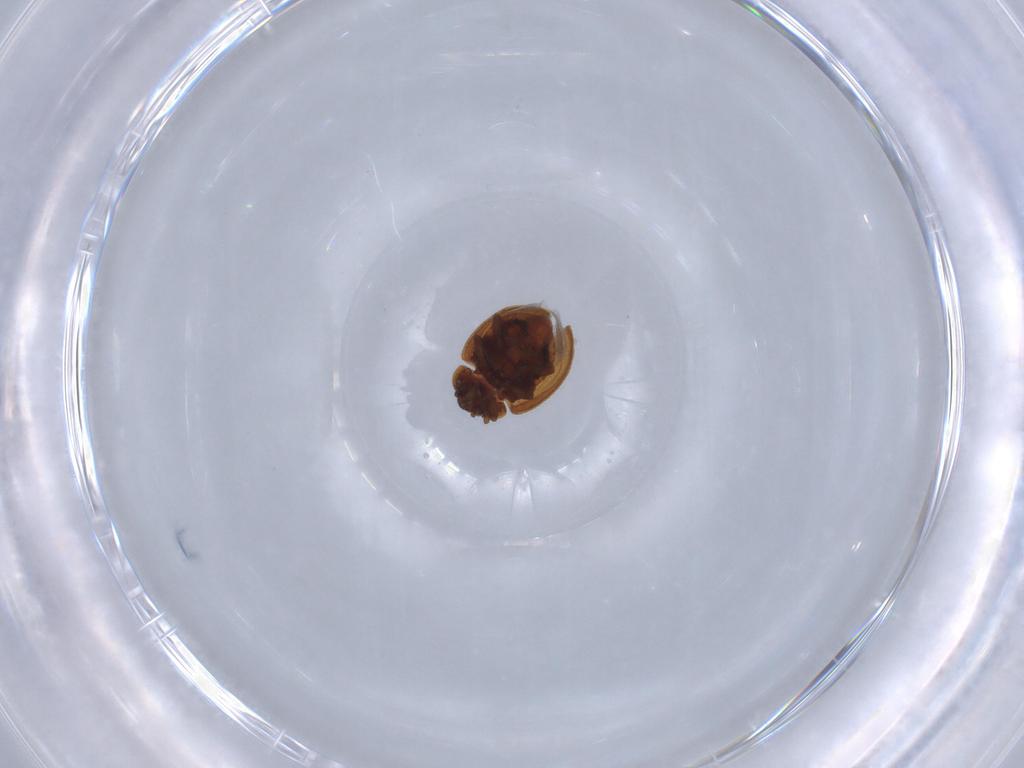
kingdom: Animalia
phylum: Arthropoda
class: Insecta
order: Coleoptera
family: Coccinellidae
